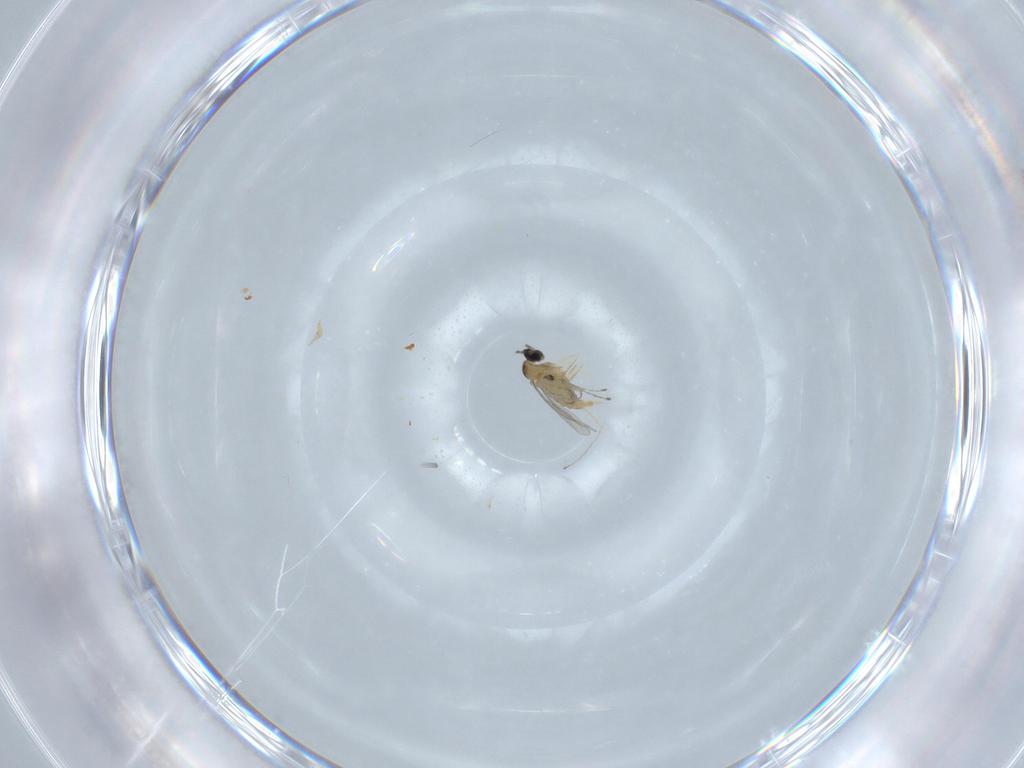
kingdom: Animalia
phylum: Arthropoda
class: Insecta
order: Diptera
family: Cecidomyiidae
